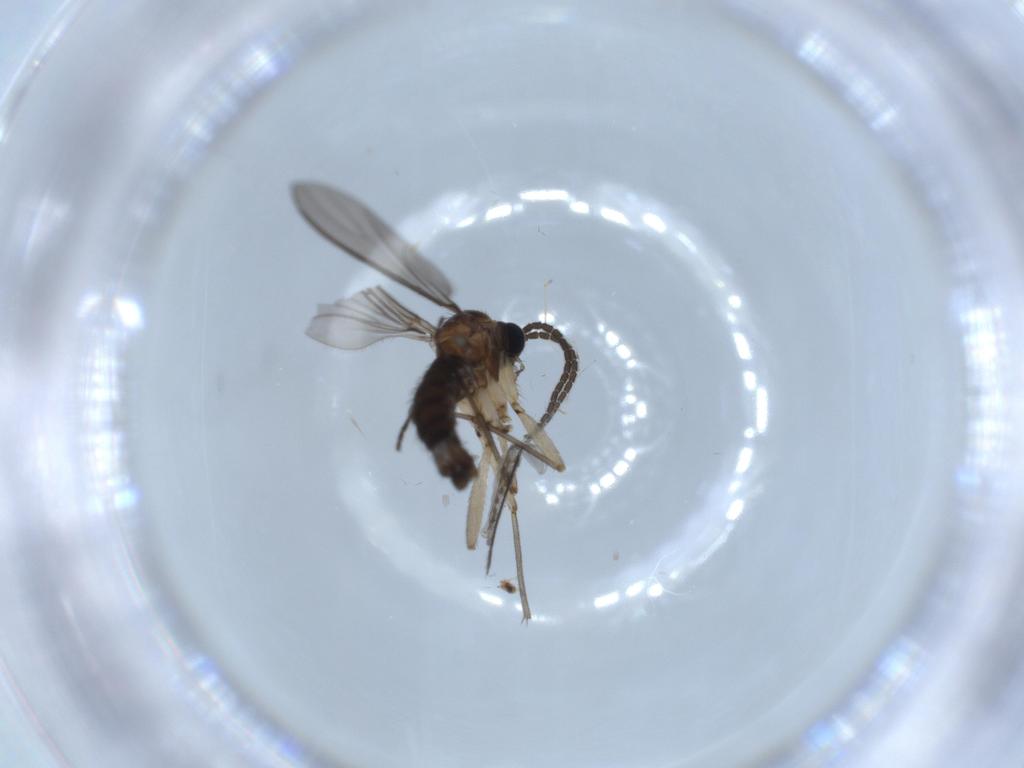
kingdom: Animalia
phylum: Arthropoda
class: Insecta
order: Diptera
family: Sciaridae
